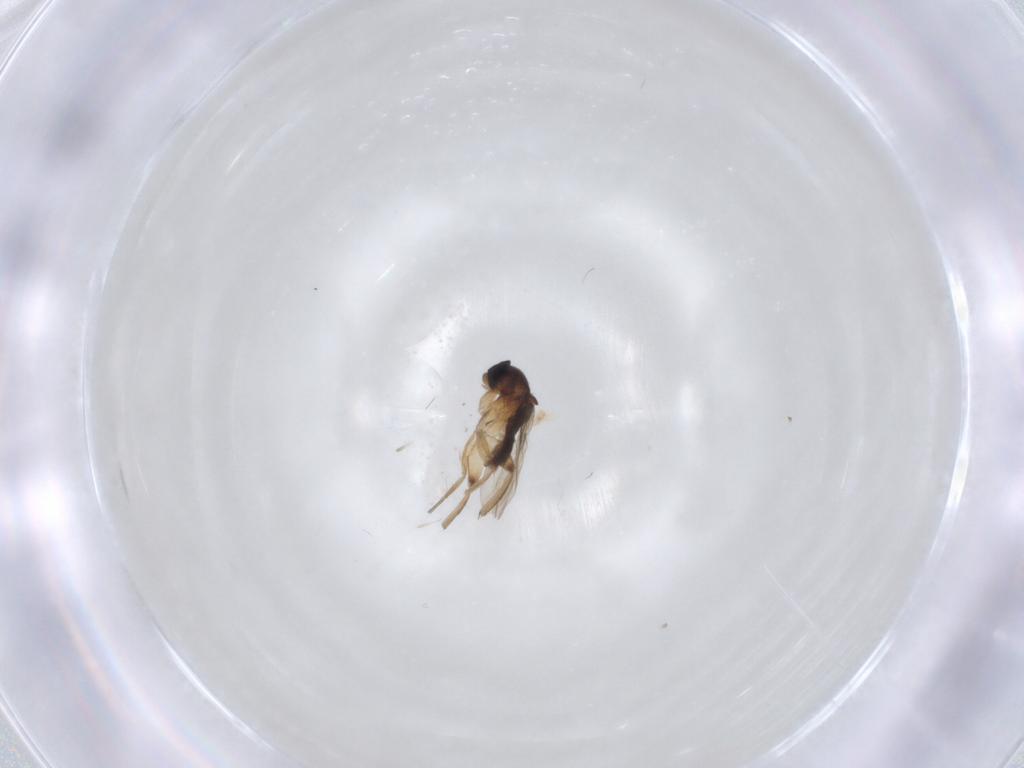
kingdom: Animalia
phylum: Arthropoda
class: Insecta
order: Diptera
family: Phoridae
